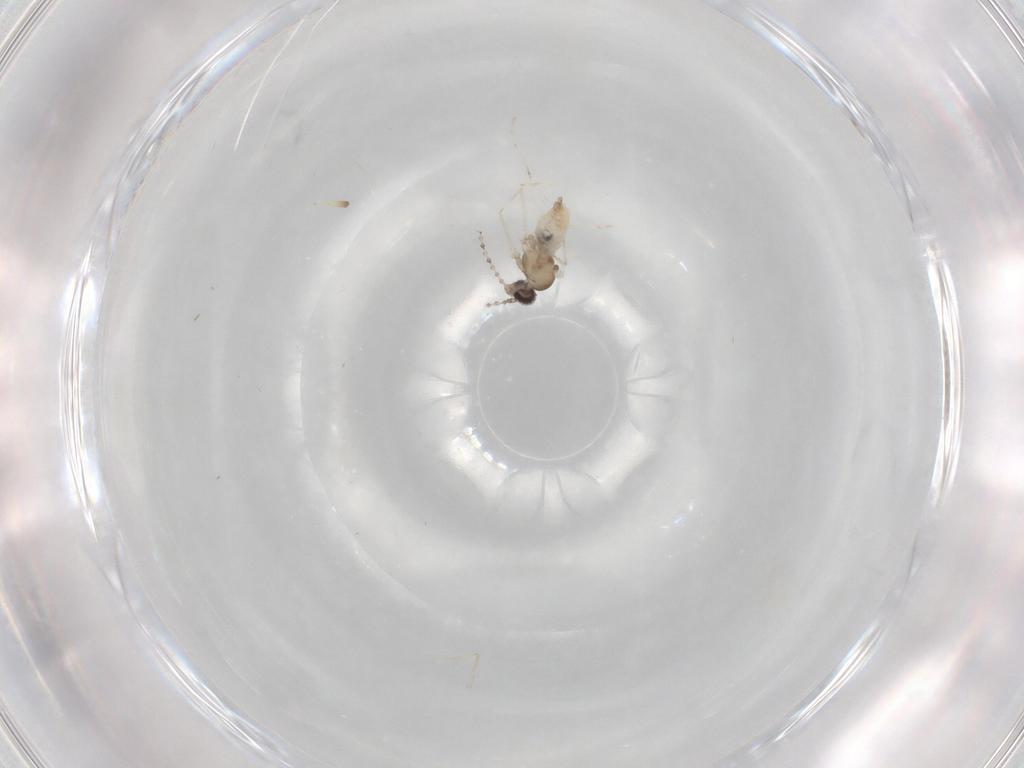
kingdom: Animalia
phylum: Arthropoda
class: Insecta
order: Diptera
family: Cecidomyiidae
